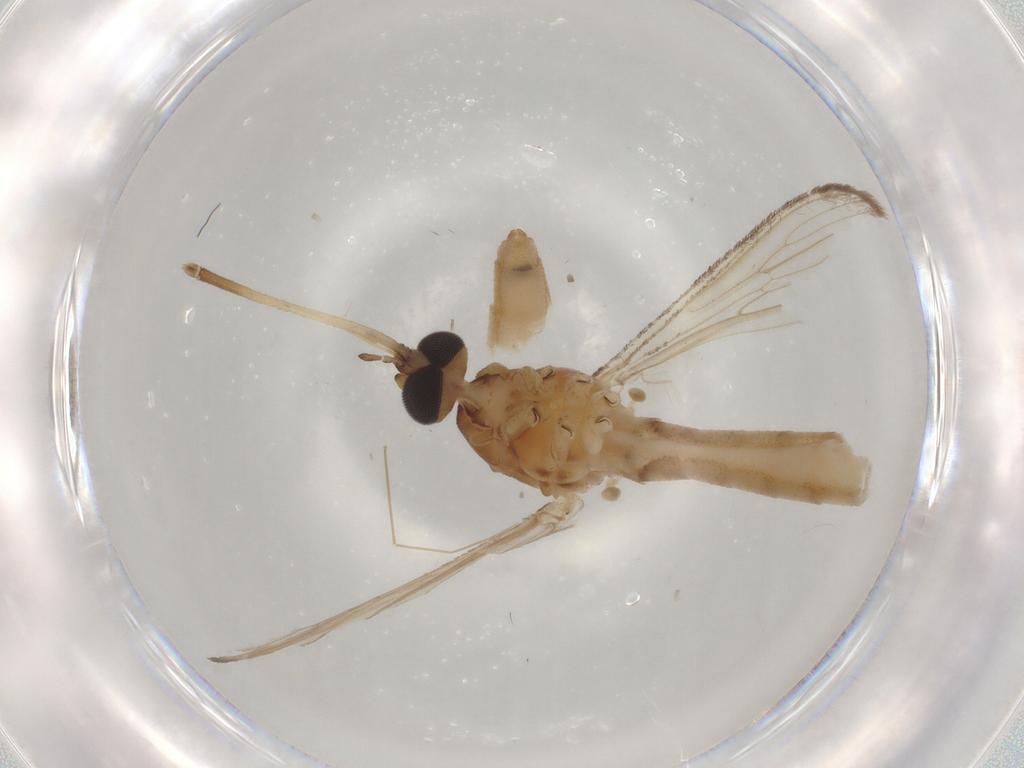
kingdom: Animalia
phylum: Arthropoda
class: Insecta
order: Diptera
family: Cecidomyiidae
